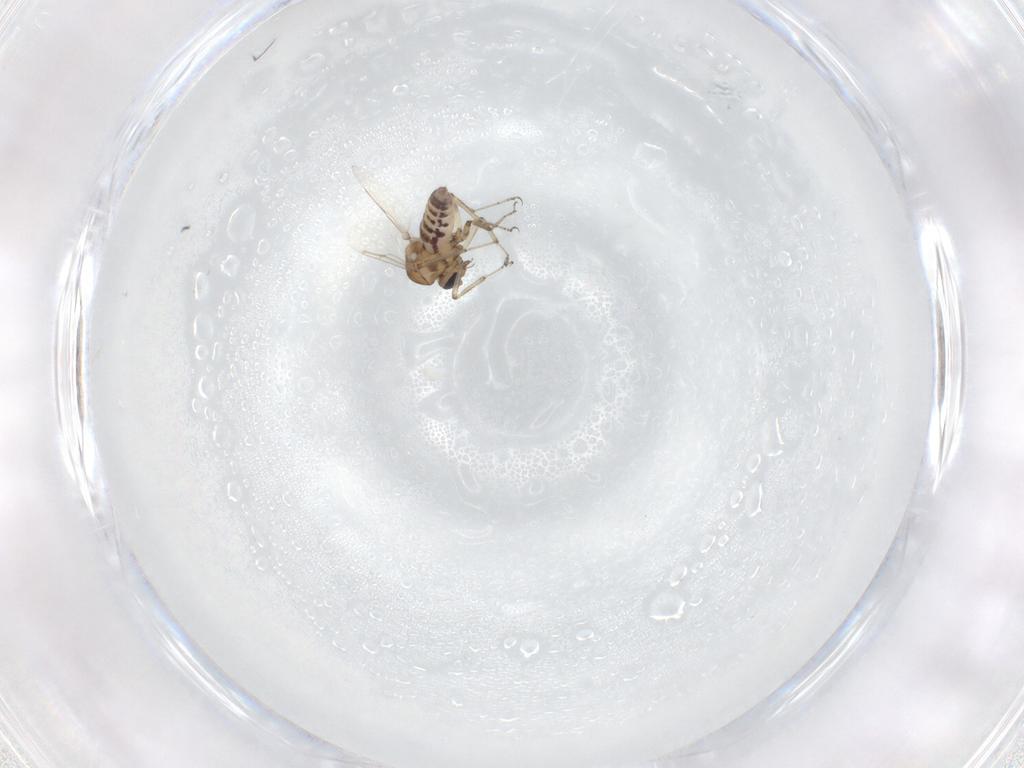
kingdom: Animalia
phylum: Arthropoda
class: Insecta
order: Diptera
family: Ceratopogonidae
